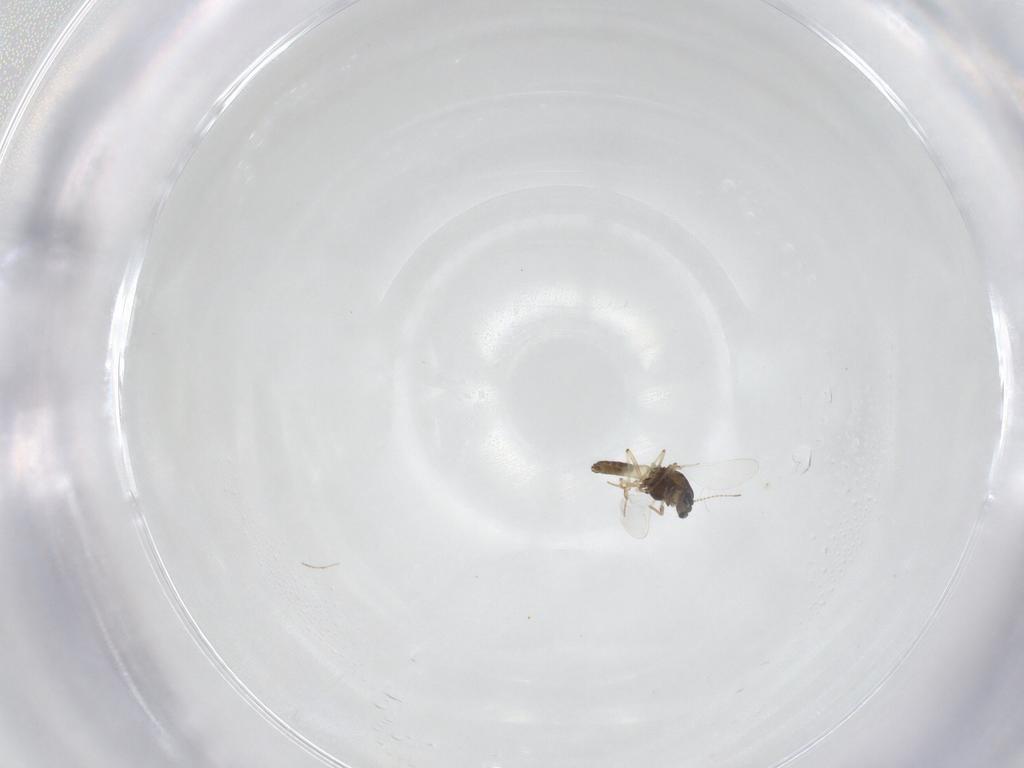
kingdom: Animalia
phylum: Arthropoda
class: Insecta
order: Diptera
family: Chironomidae
